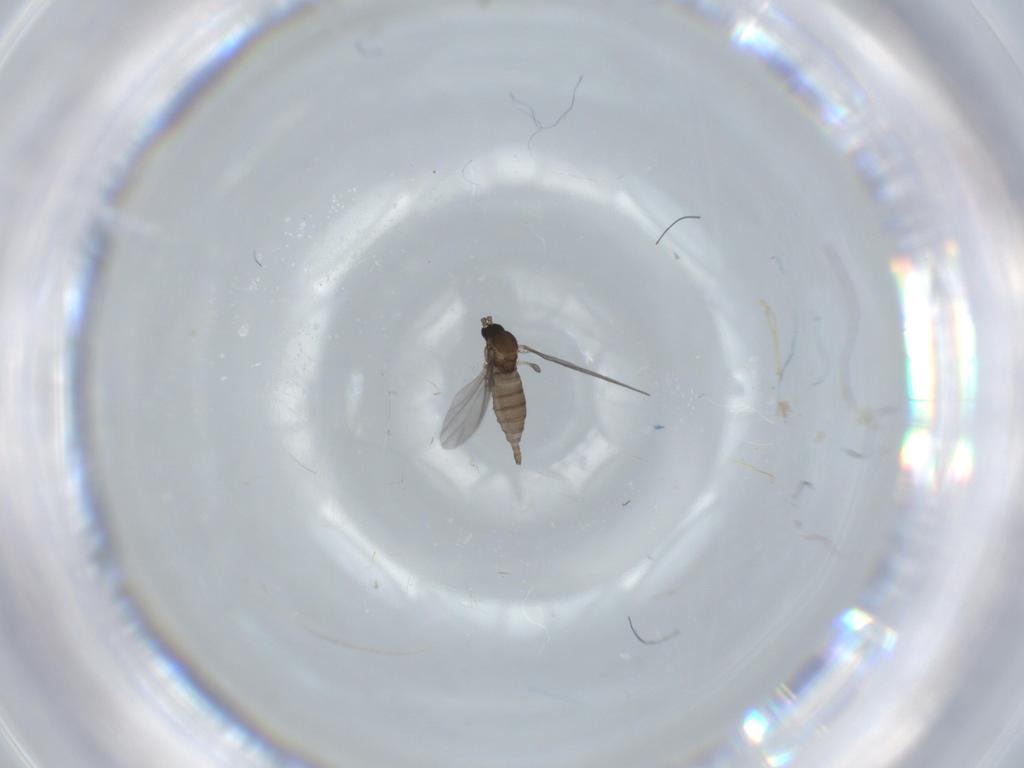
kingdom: Animalia
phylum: Arthropoda
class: Insecta
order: Diptera
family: Sciaridae
